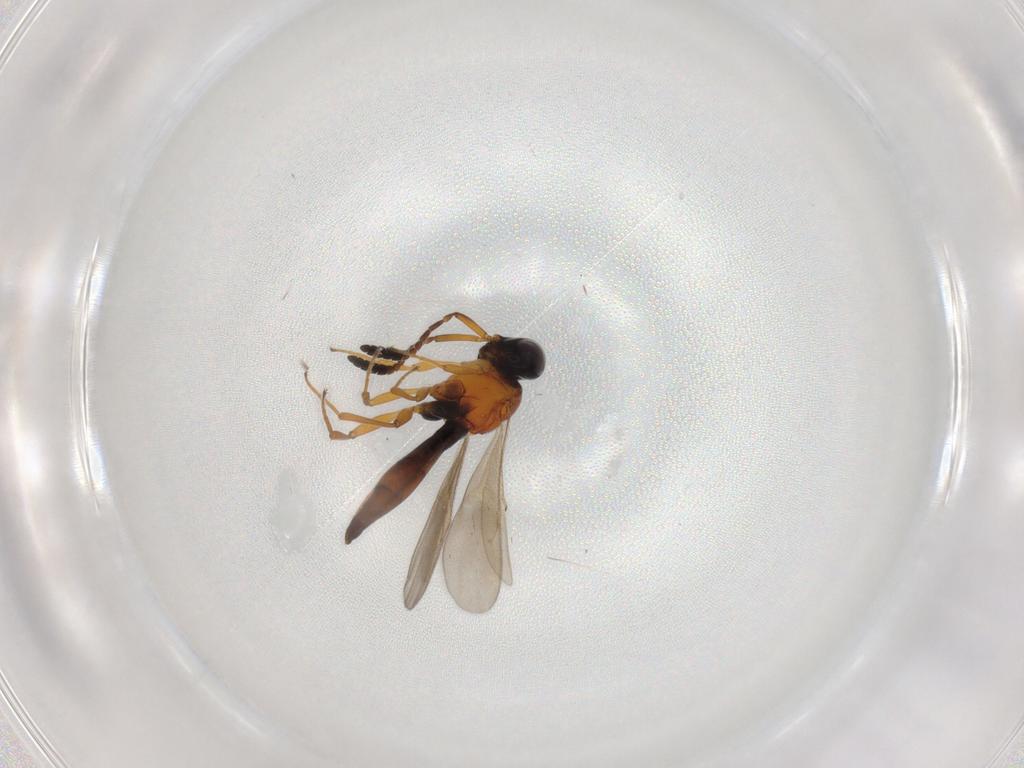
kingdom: Animalia
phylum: Arthropoda
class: Insecta
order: Hymenoptera
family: Scelionidae
